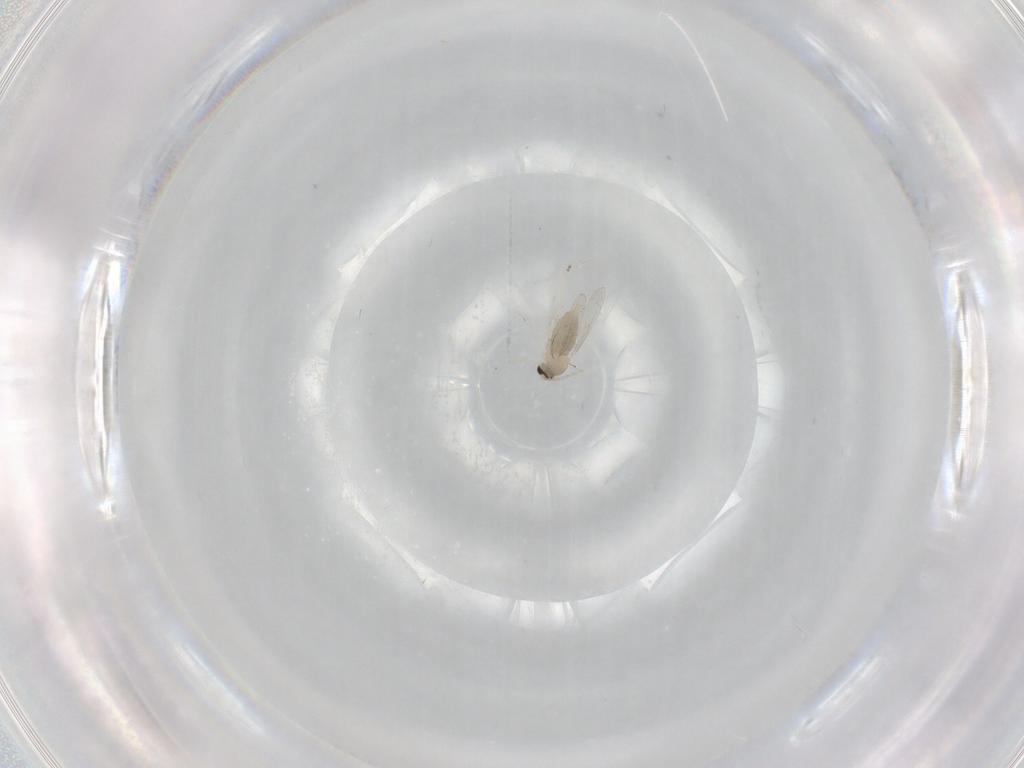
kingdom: Animalia
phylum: Arthropoda
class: Insecta
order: Diptera
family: Cecidomyiidae
